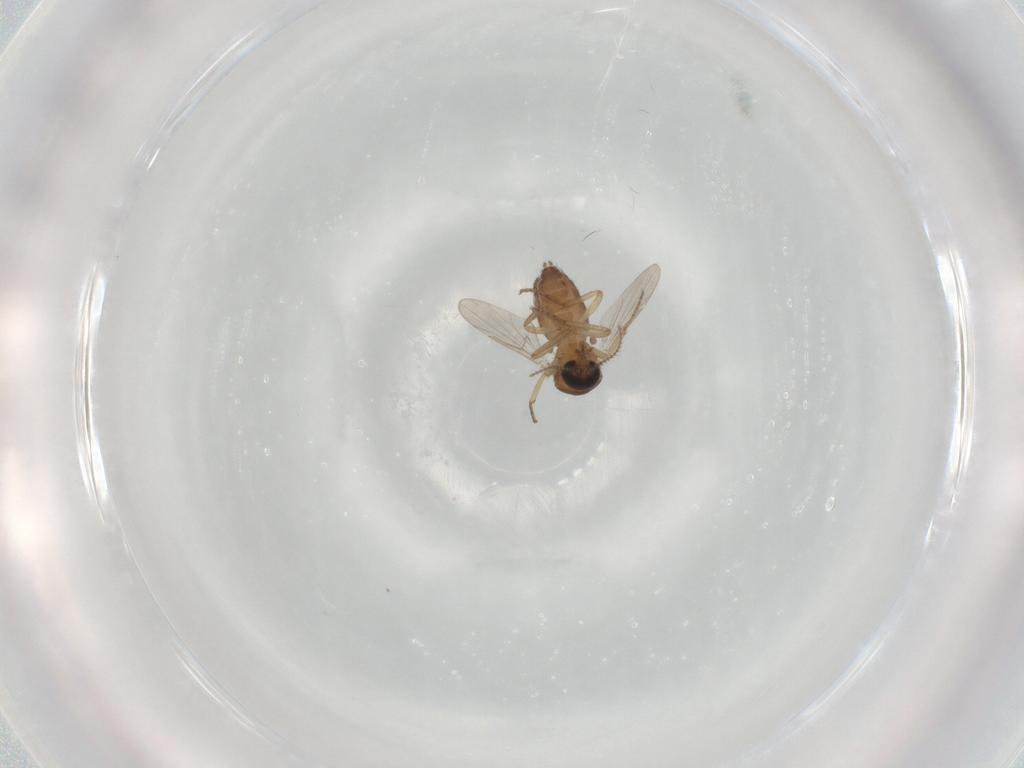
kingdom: Animalia
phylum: Arthropoda
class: Insecta
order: Diptera
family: Ceratopogonidae
